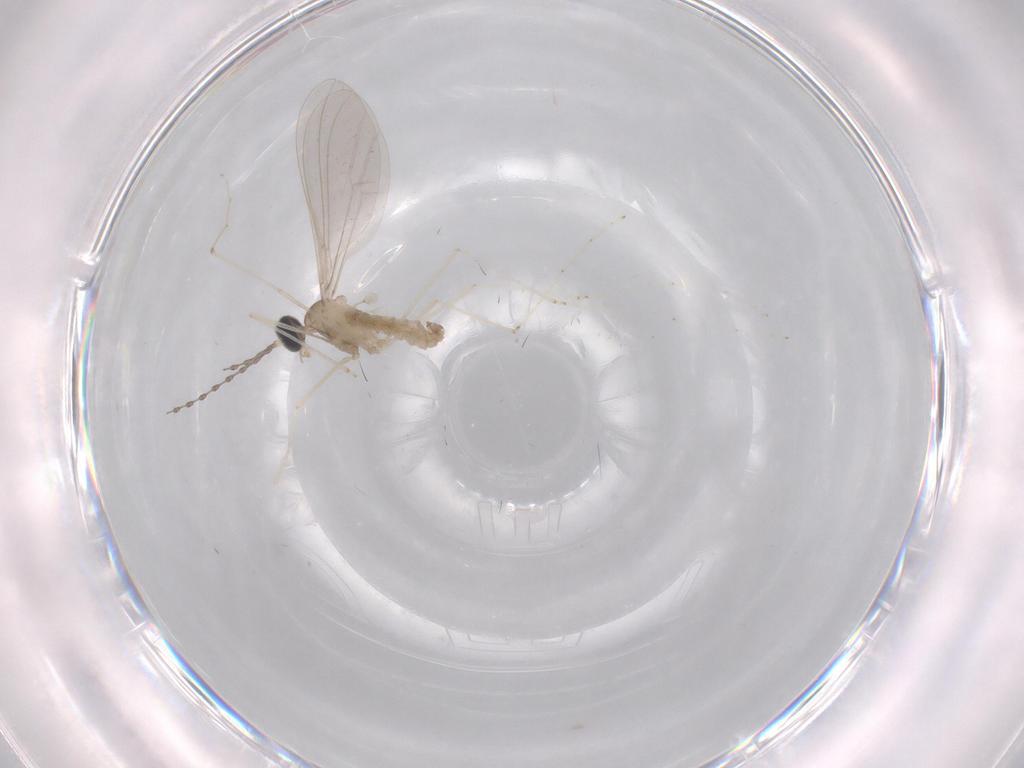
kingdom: Animalia
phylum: Arthropoda
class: Insecta
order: Diptera
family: Cecidomyiidae
